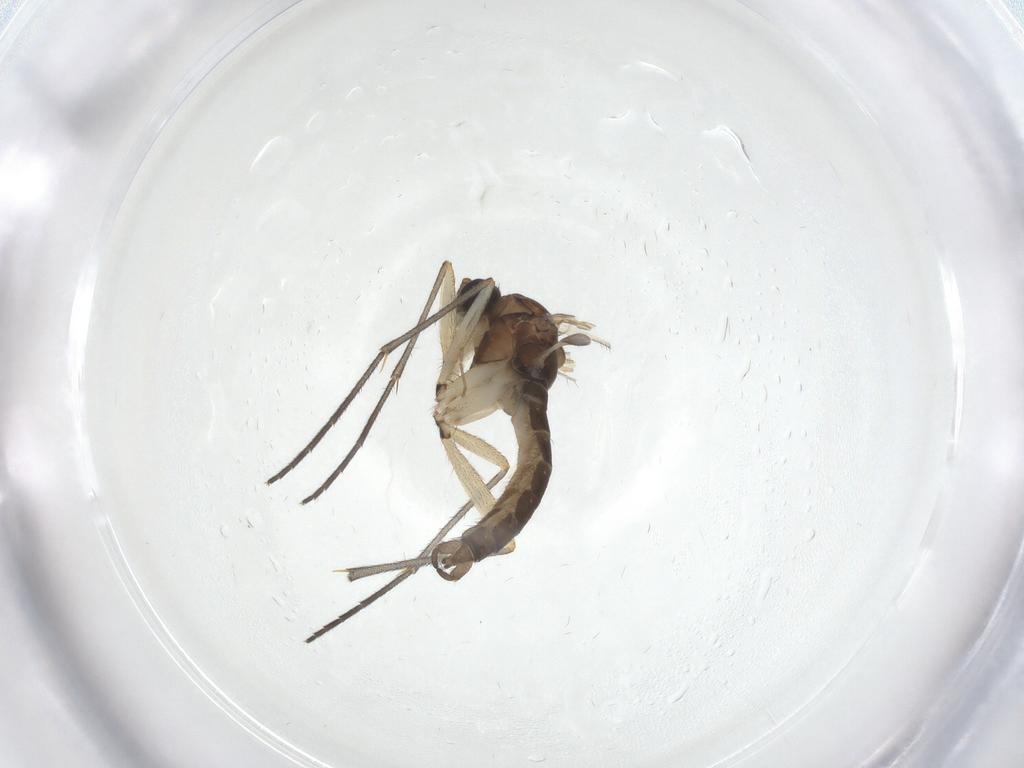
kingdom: Animalia
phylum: Arthropoda
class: Insecta
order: Diptera
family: Sciaridae
